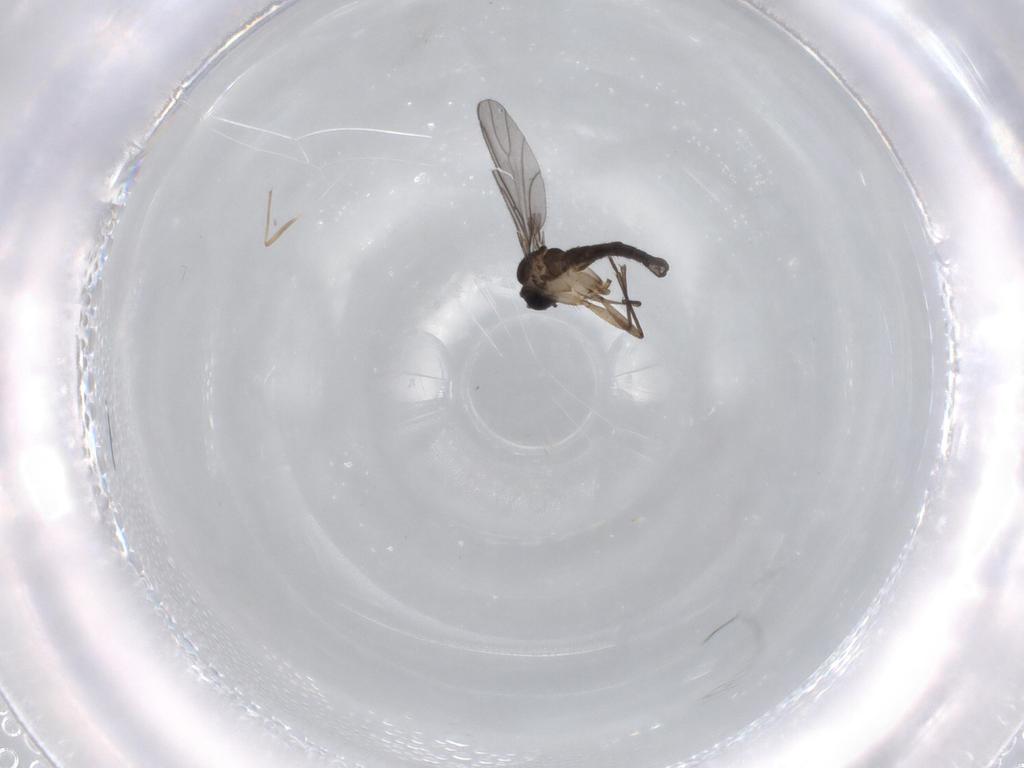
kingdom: Animalia
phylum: Arthropoda
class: Insecta
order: Diptera
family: Sciaridae
